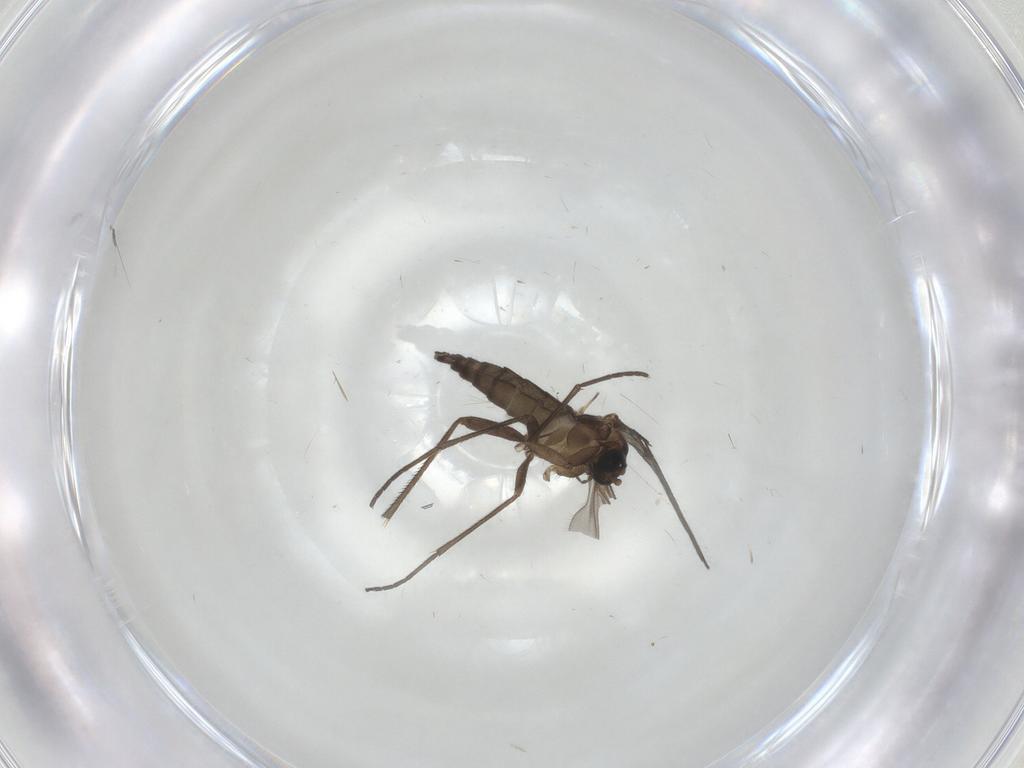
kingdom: Animalia
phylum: Arthropoda
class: Insecta
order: Diptera
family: Sciaridae
